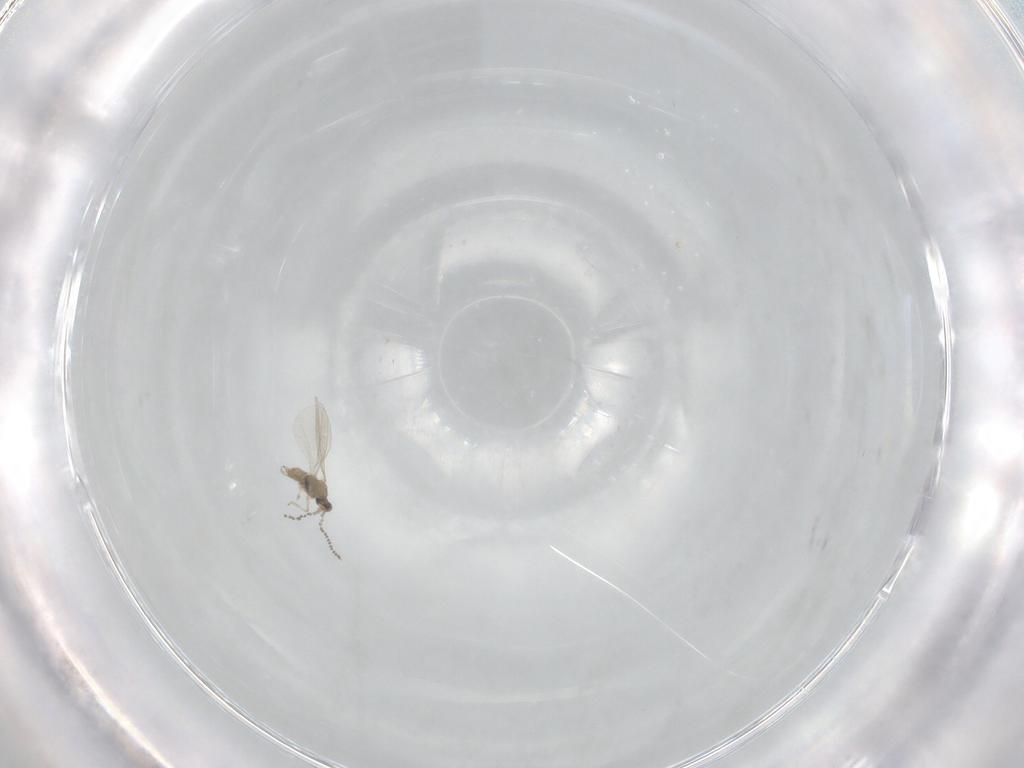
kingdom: Animalia
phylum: Arthropoda
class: Insecta
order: Diptera
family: Cecidomyiidae
